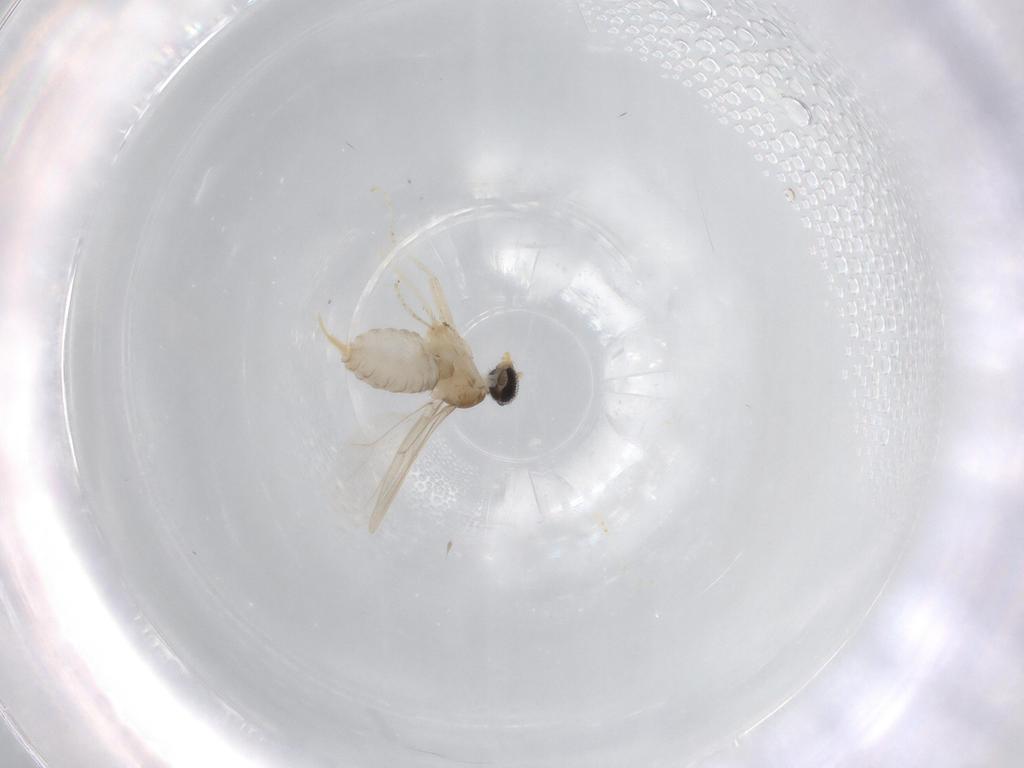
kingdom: Animalia
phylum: Arthropoda
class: Insecta
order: Diptera
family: Cecidomyiidae
